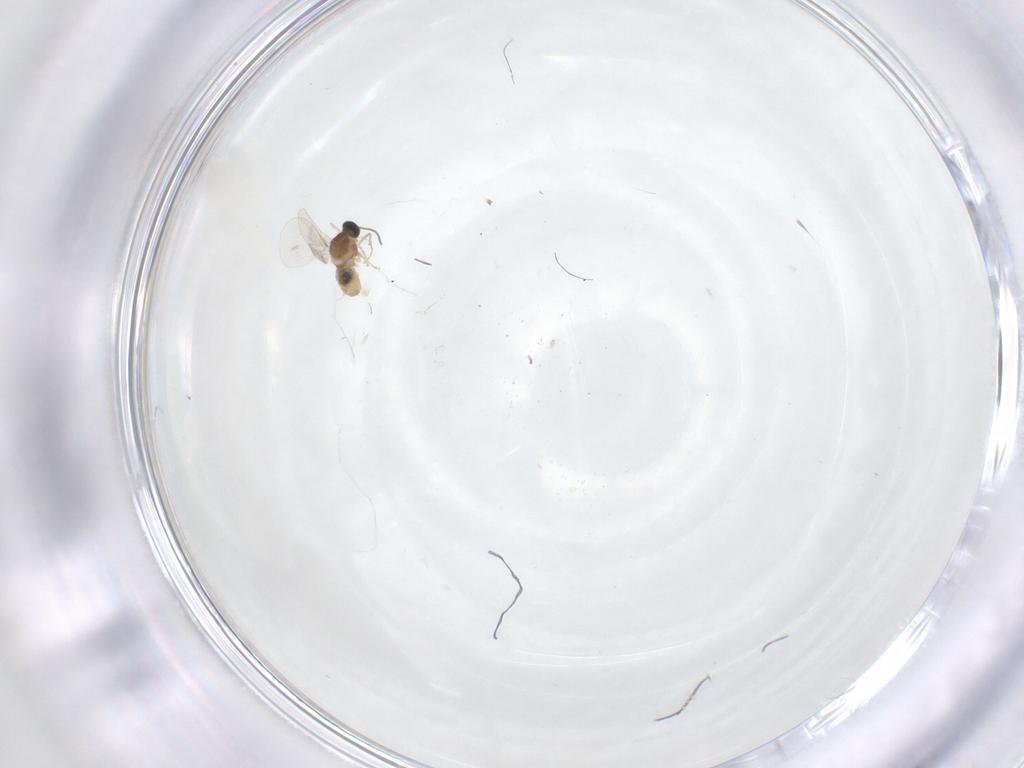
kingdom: Animalia
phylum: Arthropoda
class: Insecta
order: Diptera
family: Cecidomyiidae
